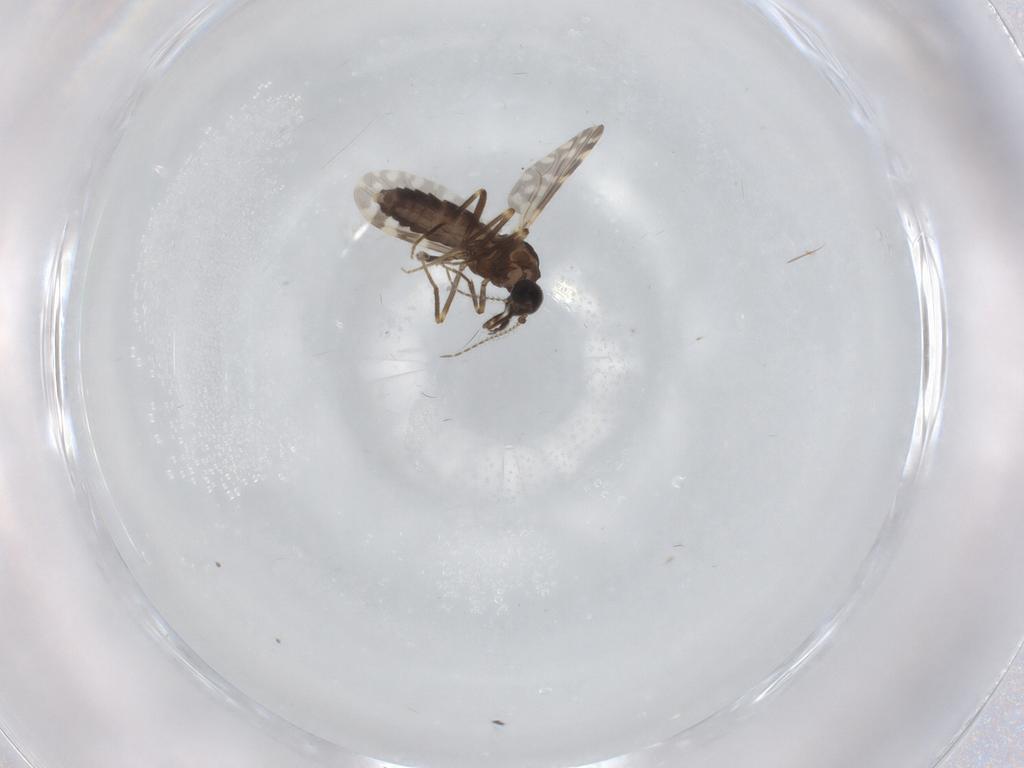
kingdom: Animalia
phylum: Arthropoda
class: Insecta
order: Diptera
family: Ceratopogonidae
